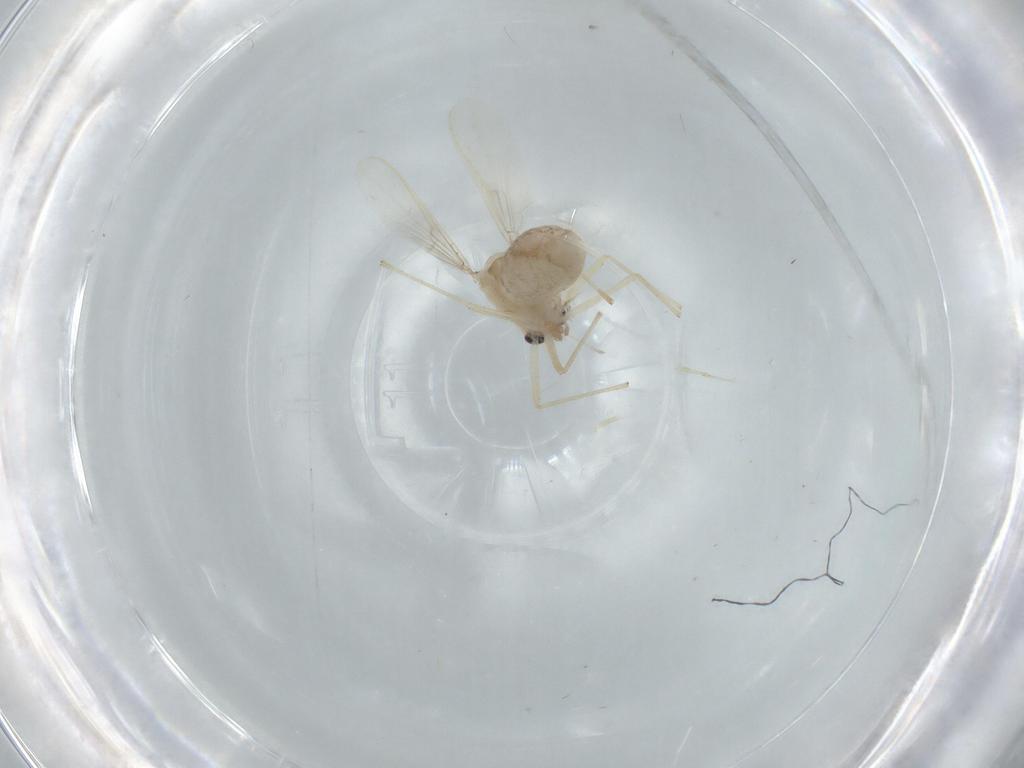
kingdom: Animalia
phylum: Arthropoda
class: Insecta
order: Diptera
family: Chironomidae
